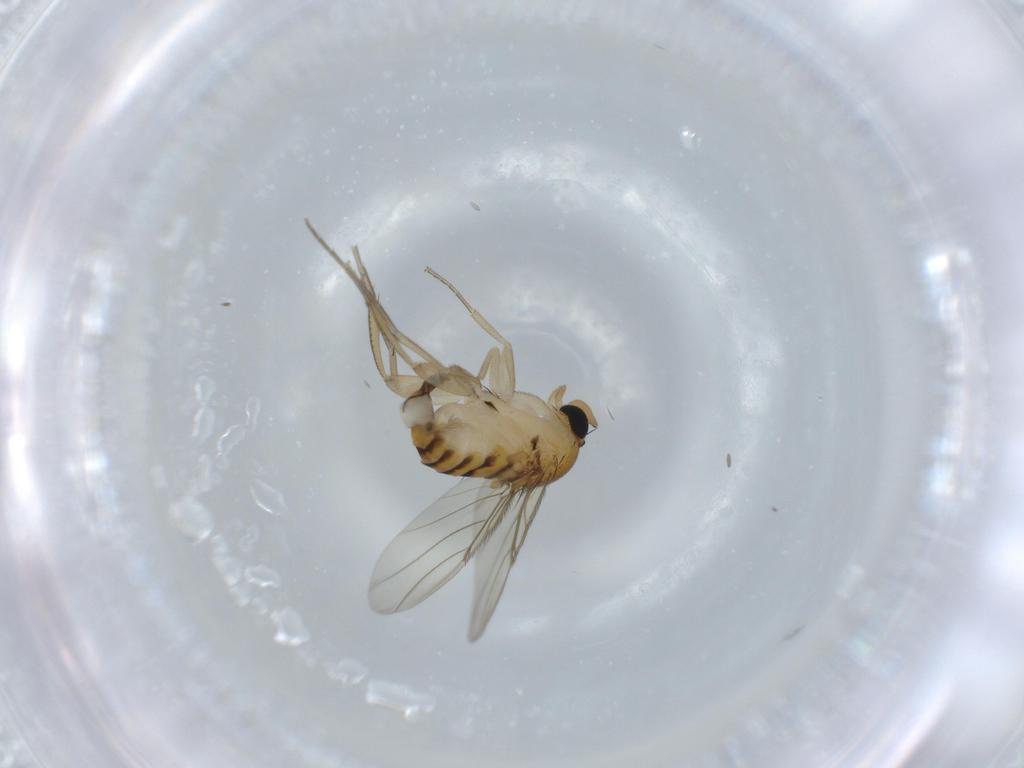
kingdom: Animalia
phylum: Arthropoda
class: Insecta
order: Diptera
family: Phoridae
